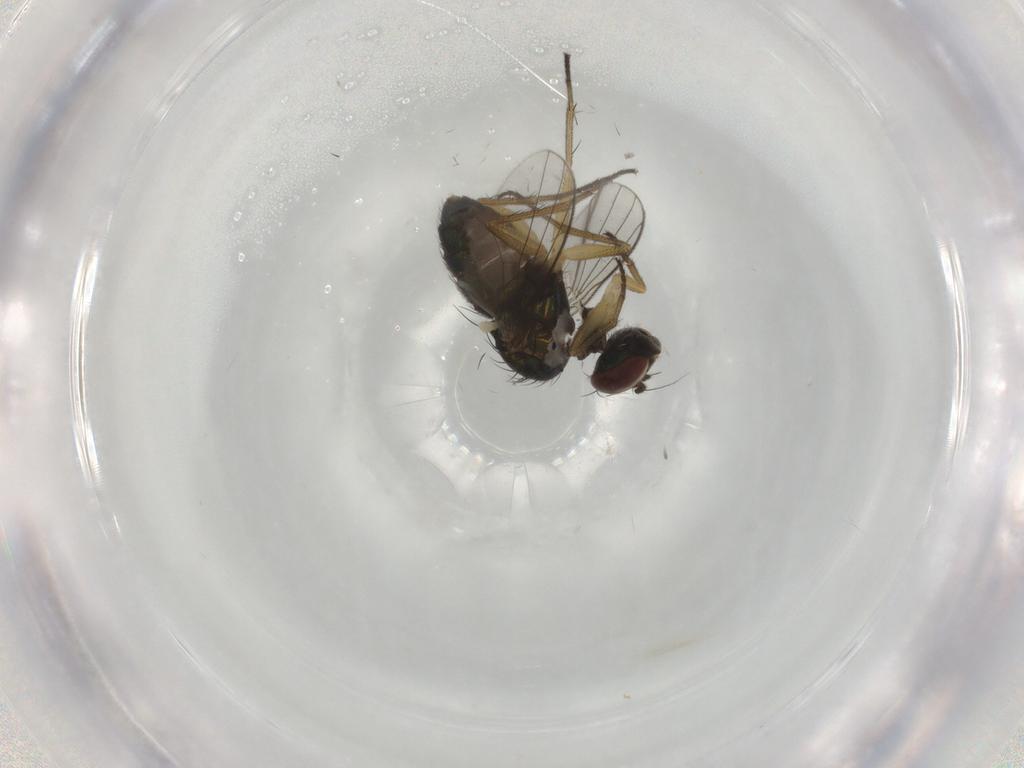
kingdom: Animalia
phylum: Arthropoda
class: Insecta
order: Diptera
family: Dolichopodidae
